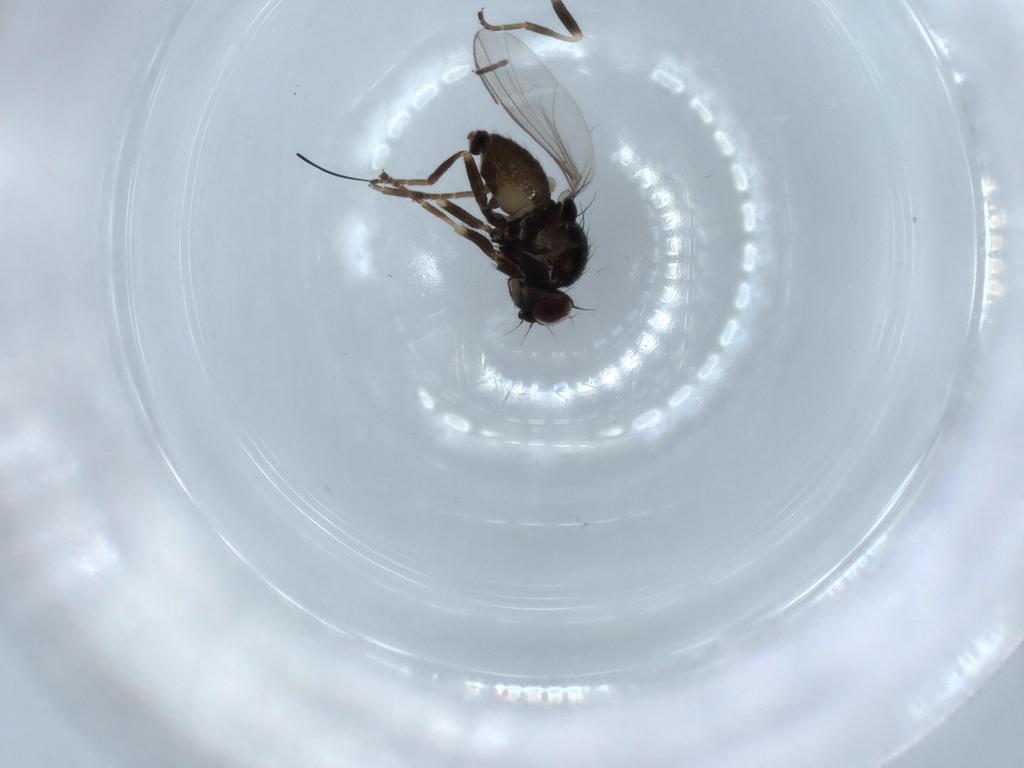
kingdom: Animalia
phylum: Arthropoda
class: Insecta
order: Diptera
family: Agromyzidae
